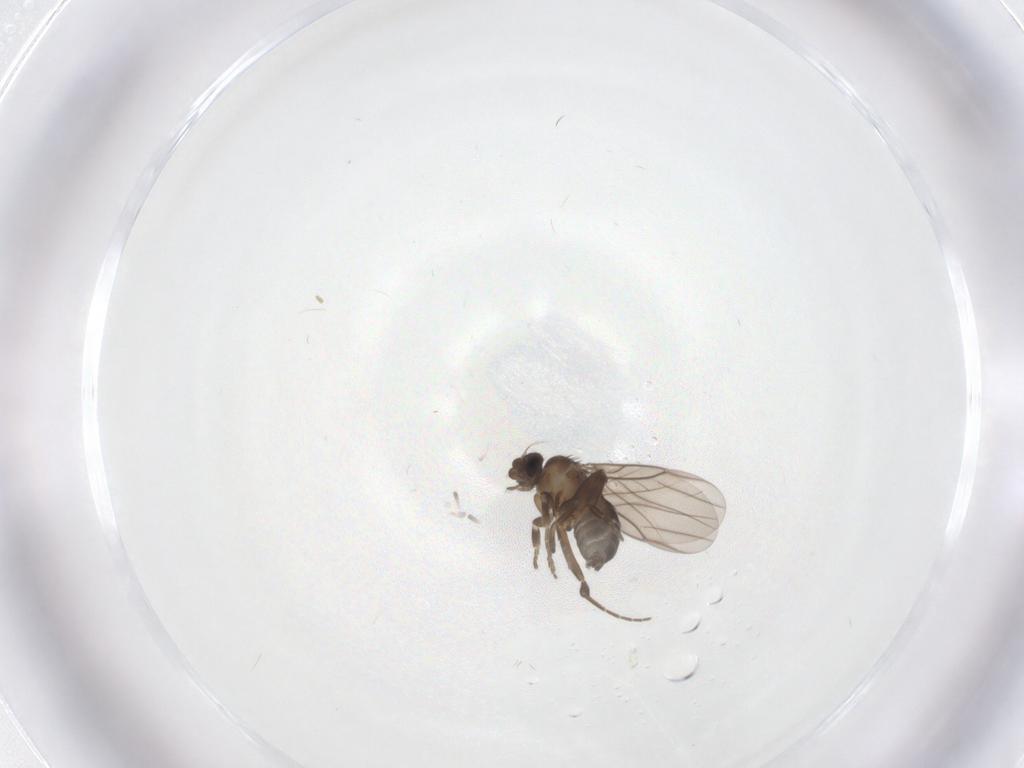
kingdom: Animalia
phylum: Arthropoda
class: Insecta
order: Diptera
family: Phoridae
